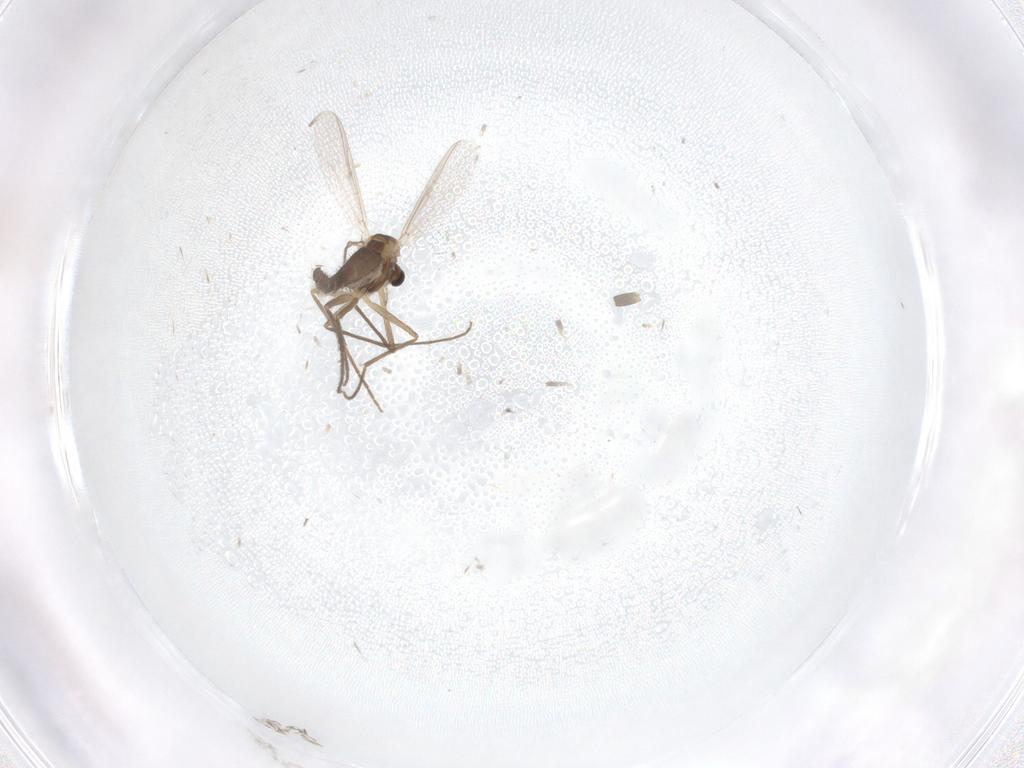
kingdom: Animalia
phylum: Arthropoda
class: Insecta
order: Diptera
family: Chironomidae
